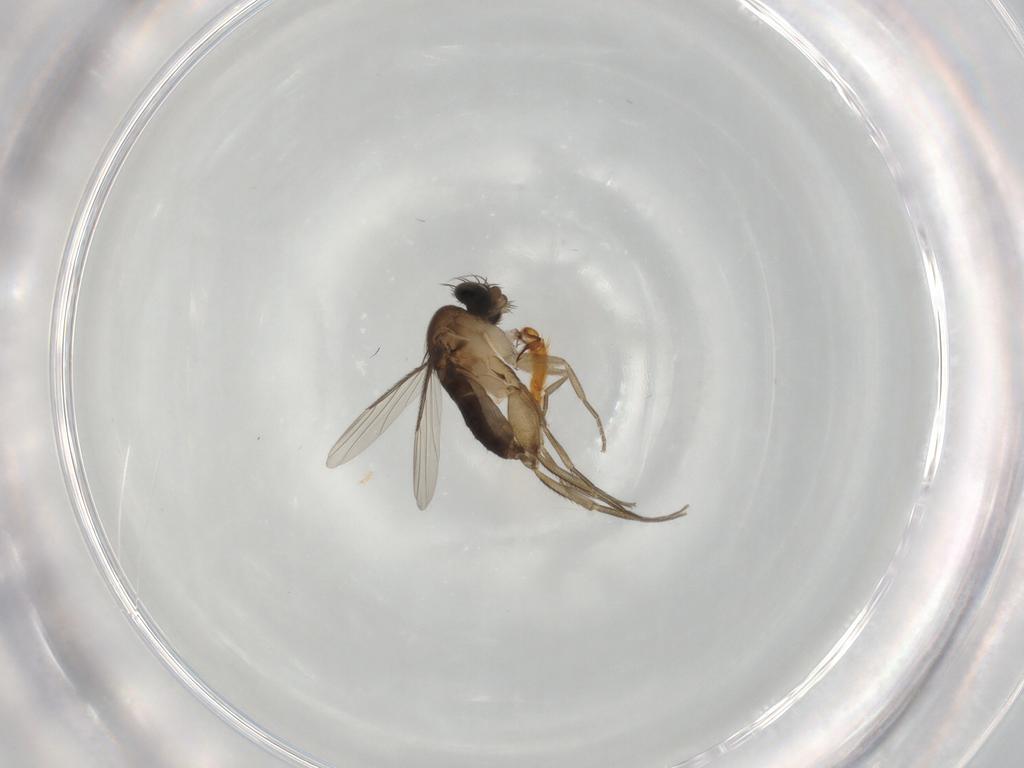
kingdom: Animalia
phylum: Arthropoda
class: Insecta
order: Diptera
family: Phoridae
